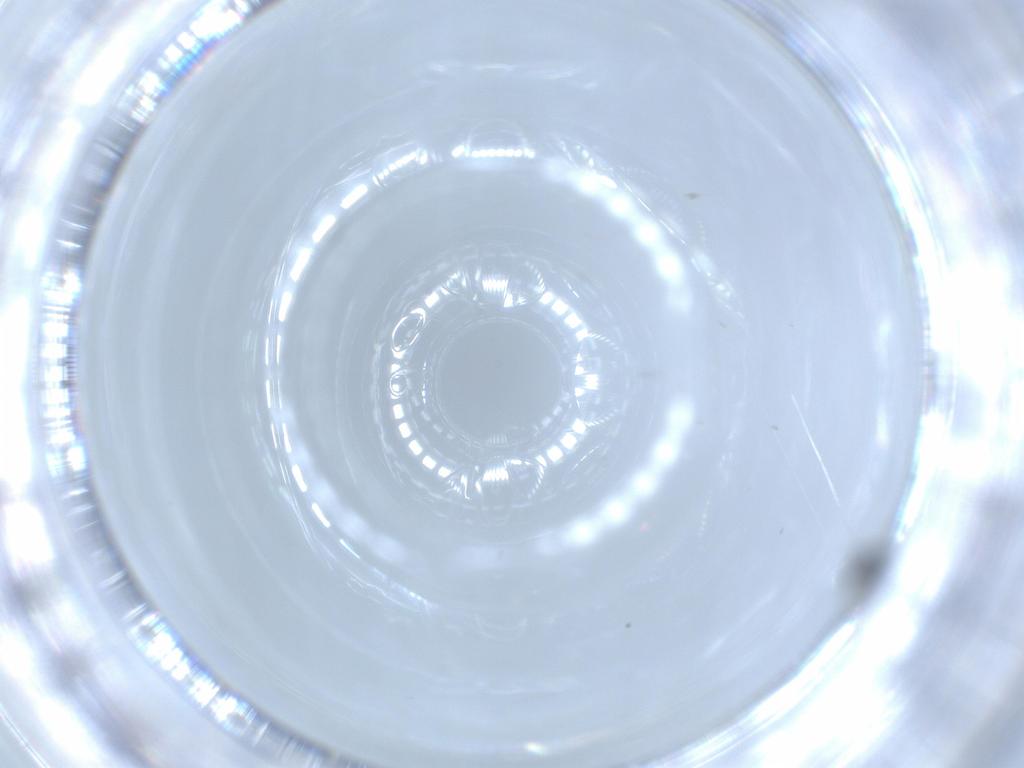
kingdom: Animalia
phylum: Arthropoda
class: Insecta
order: Hymenoptera
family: Scelionidae
